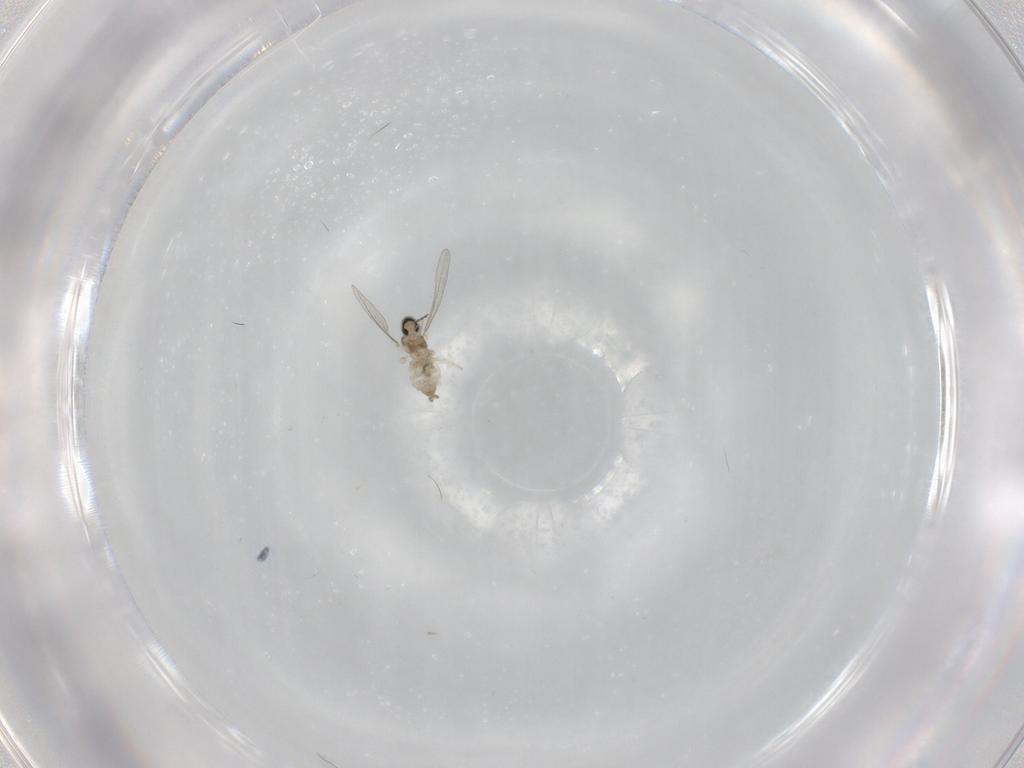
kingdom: Animalia
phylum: Arthropoda
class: Insecta
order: Diptera
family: Cecidomyiidae
